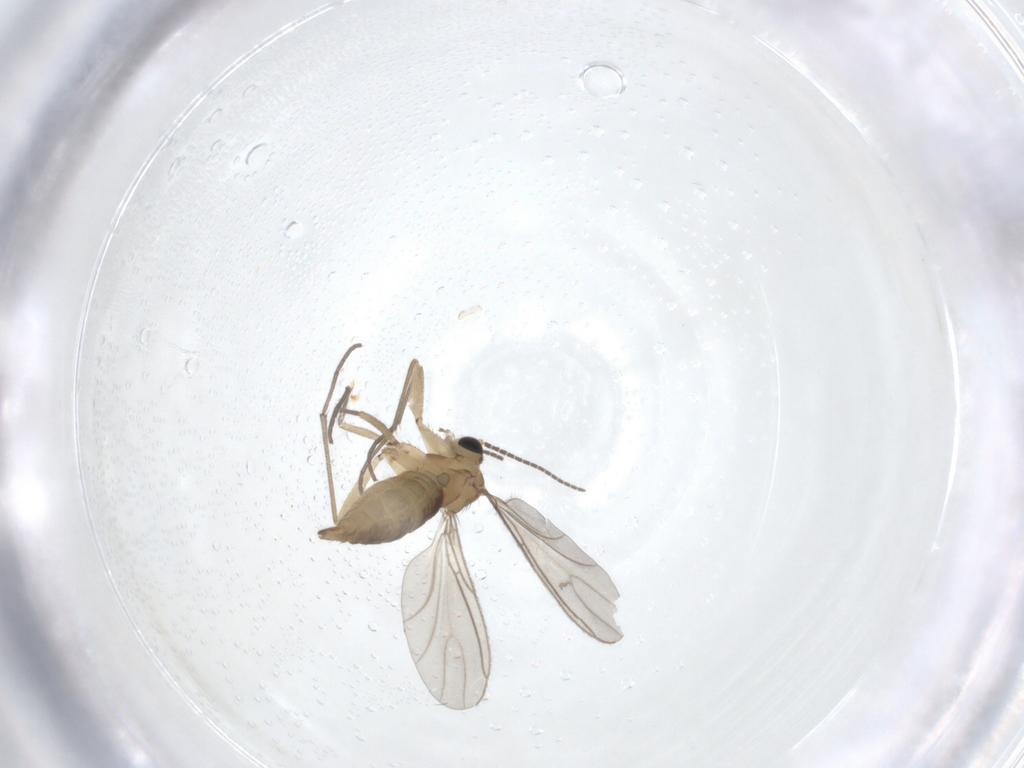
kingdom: Animalia
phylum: Arthropoda
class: Insecta
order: Diptera
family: Sciaridae
